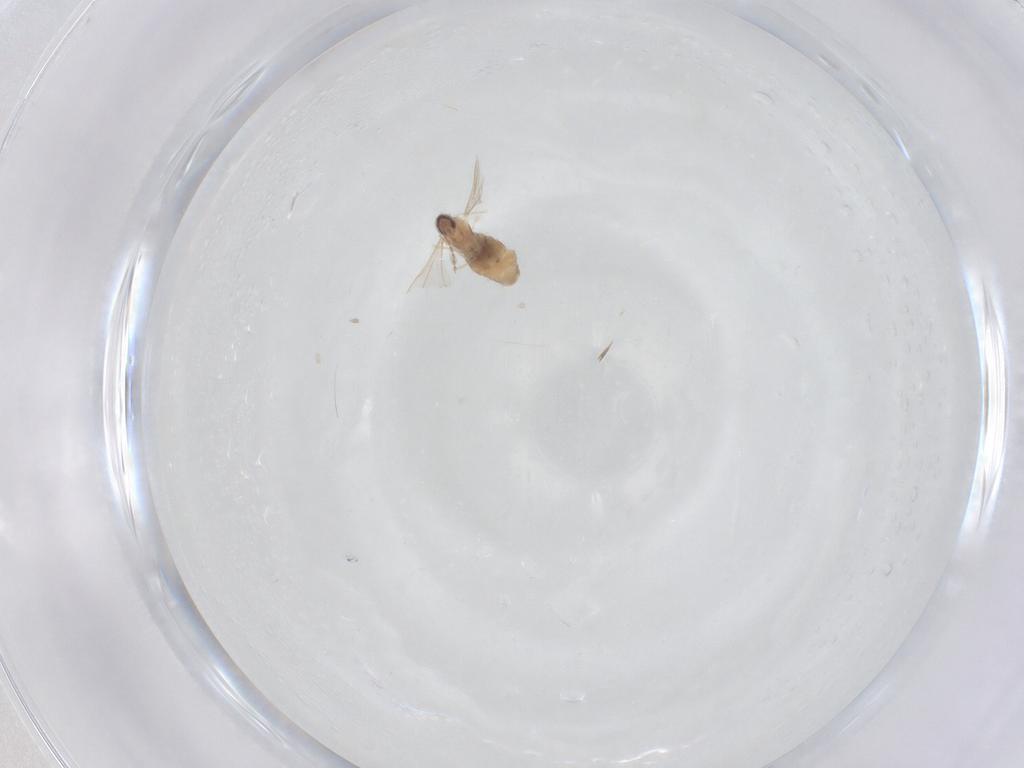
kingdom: Animalia
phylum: Arthropoda
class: Insecta
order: Diptera
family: Cecidomyiidae
